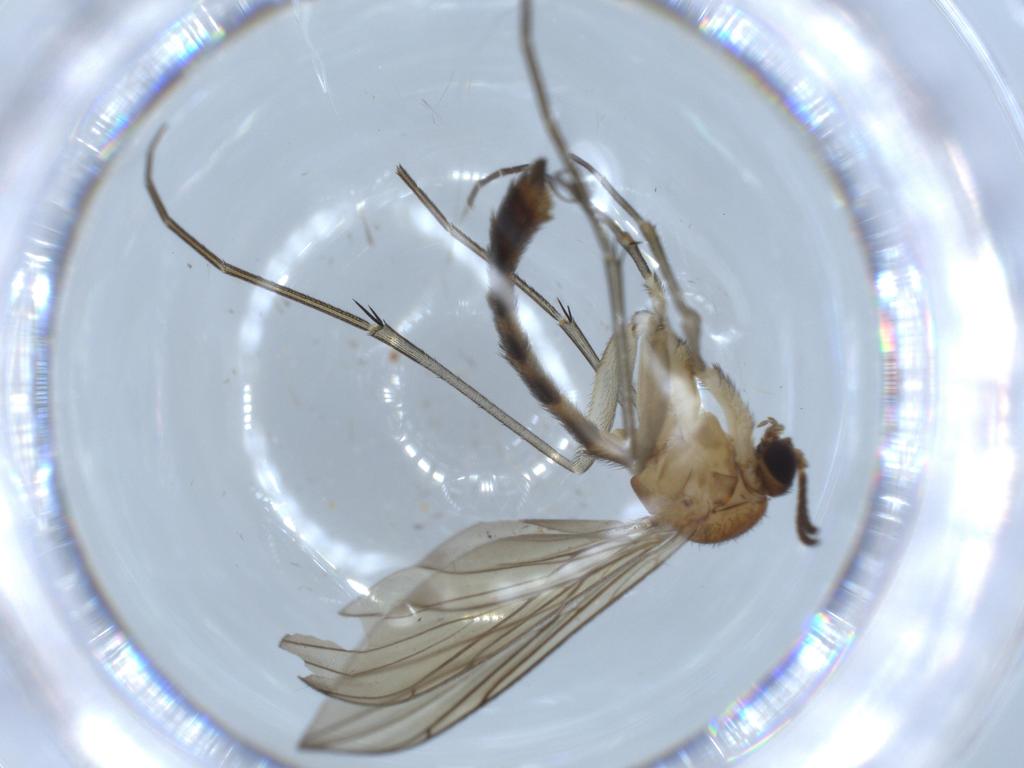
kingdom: Animalia
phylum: Arthropoda
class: Insecta
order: Diptera
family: Cecidomyiidae
